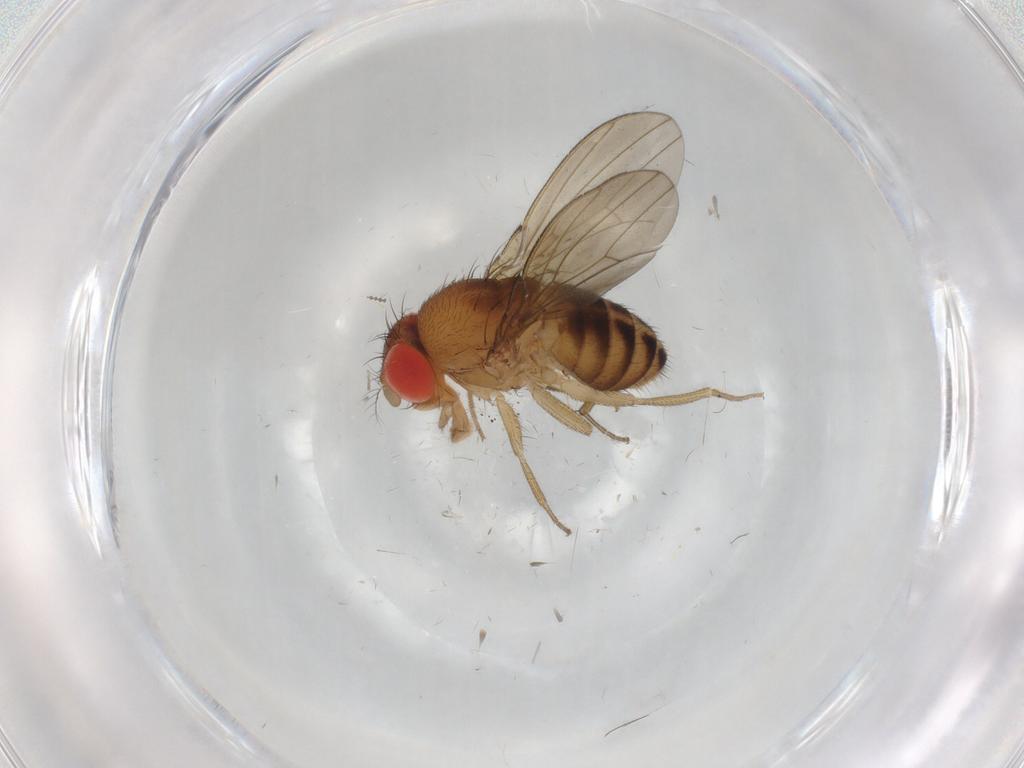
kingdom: Animalia
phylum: Arthropoda
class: Insecta
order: Diptera
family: Drosophilidae
